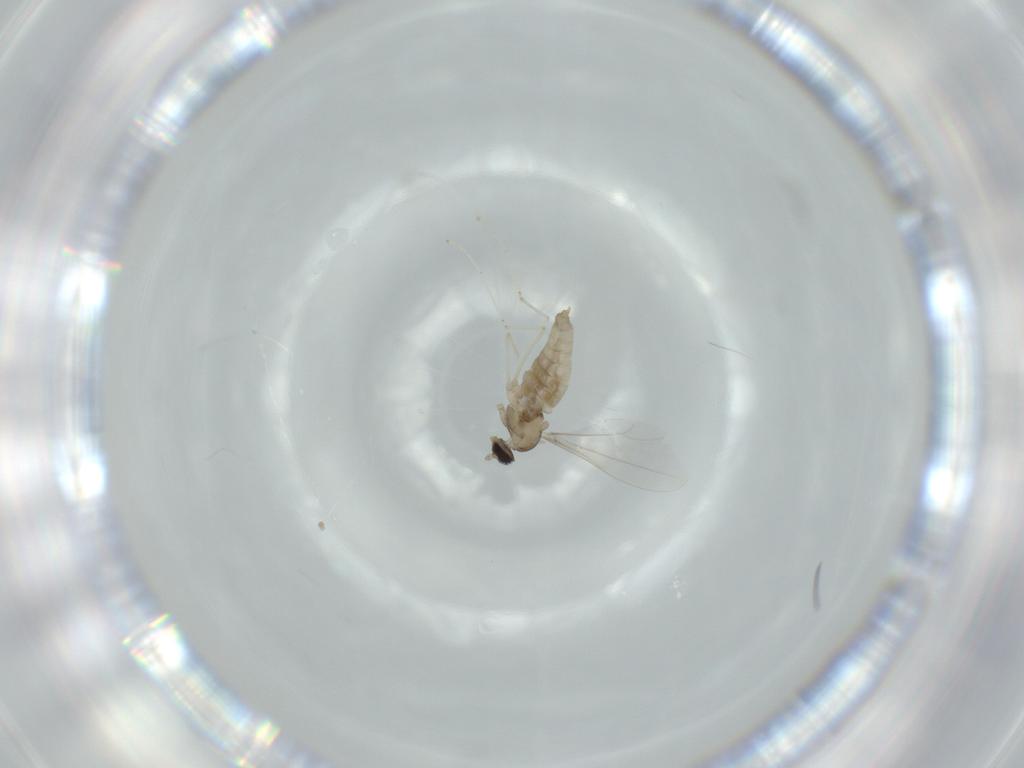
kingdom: Animalia
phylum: Arthropoda
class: Insecta
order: Diptera
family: Cecidomyiidae
